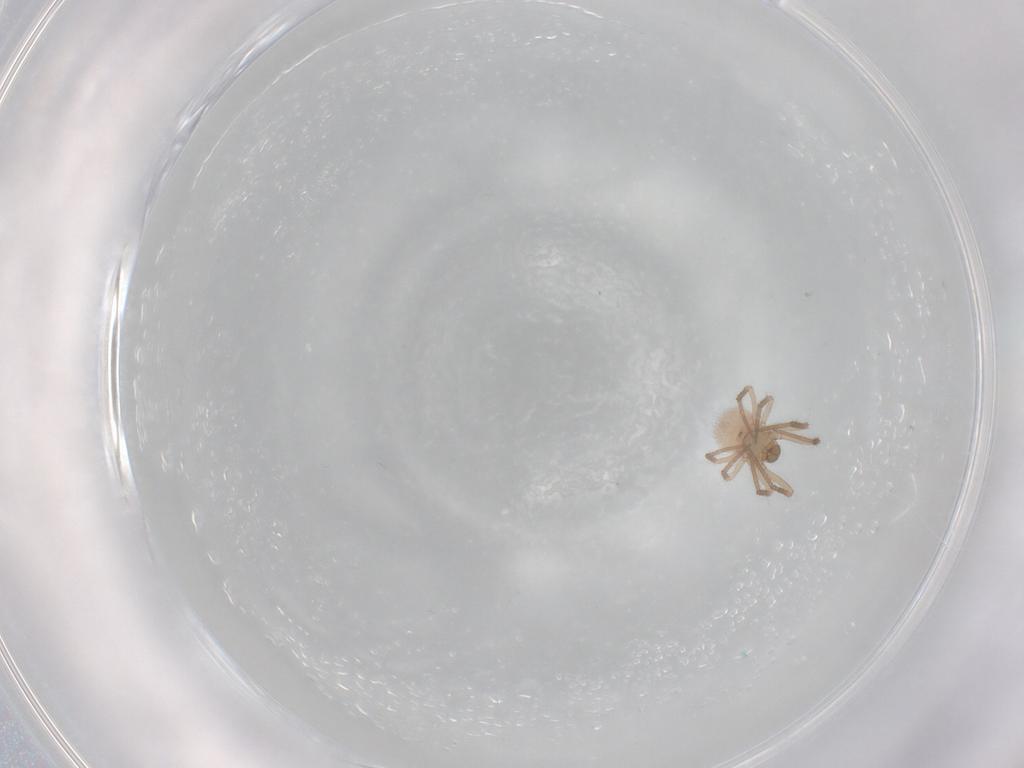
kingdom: Animalia
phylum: Arthropoda
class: Arachnida
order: Araneae
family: Symphytognathidae
